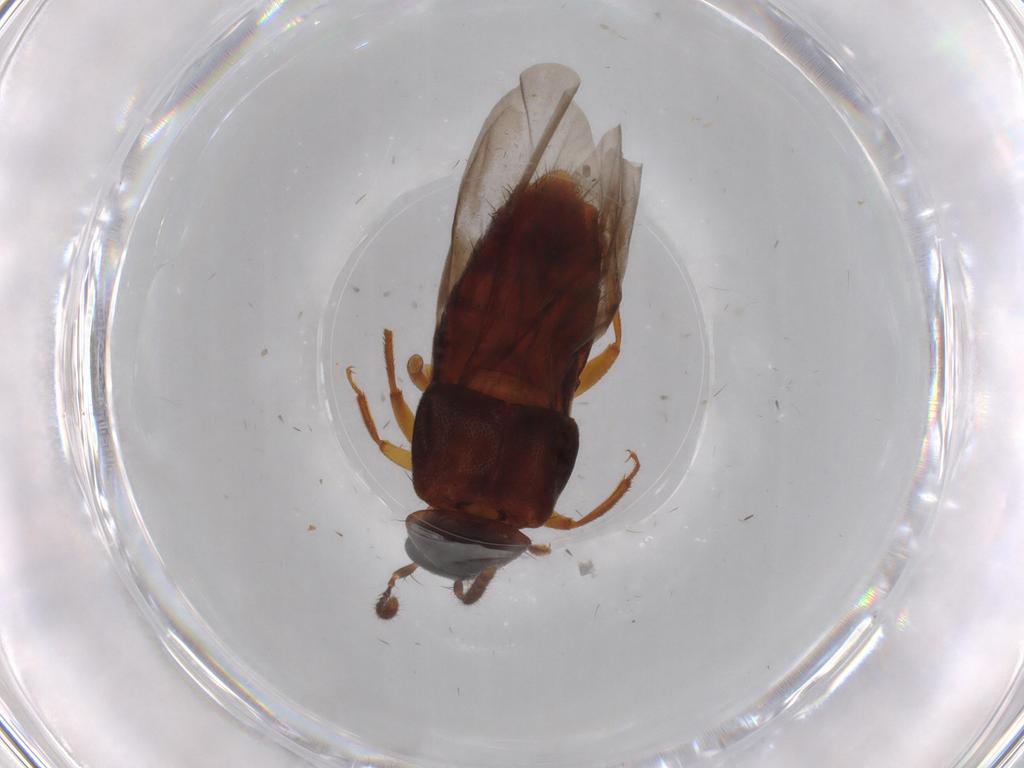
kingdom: Animalia
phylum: Arthropoda
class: Insecta
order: Coleoptera
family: Staphylinidae
